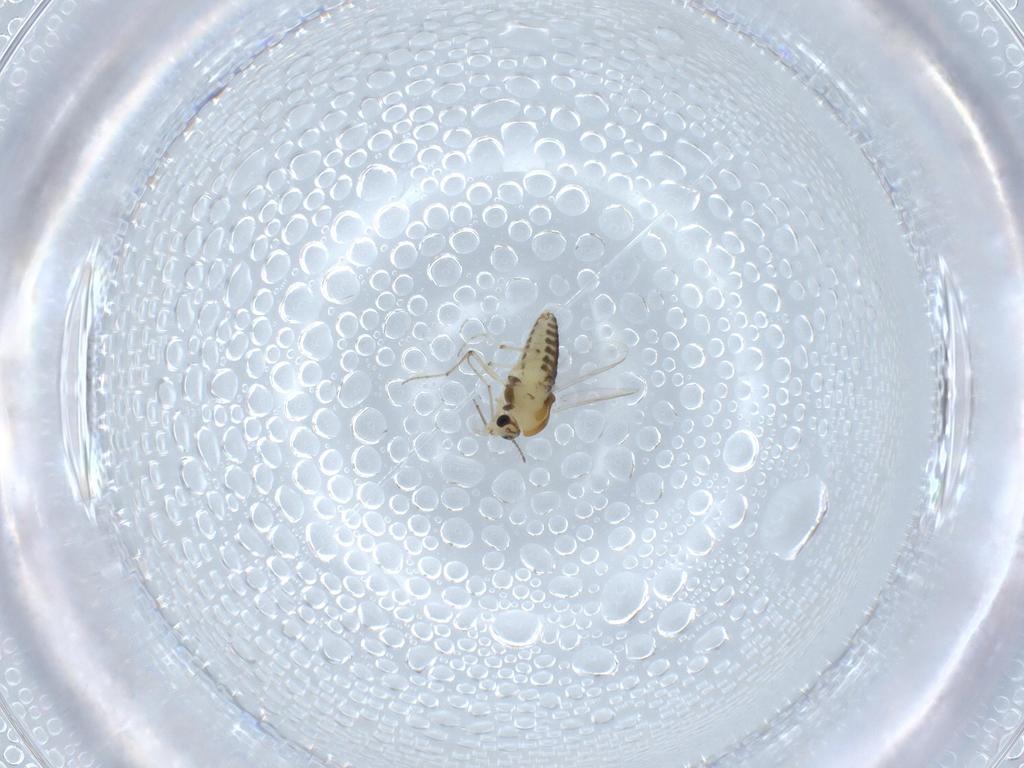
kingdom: Animalia
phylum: Arthropoda
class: Insecta
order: Diptera
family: Chironomidae
